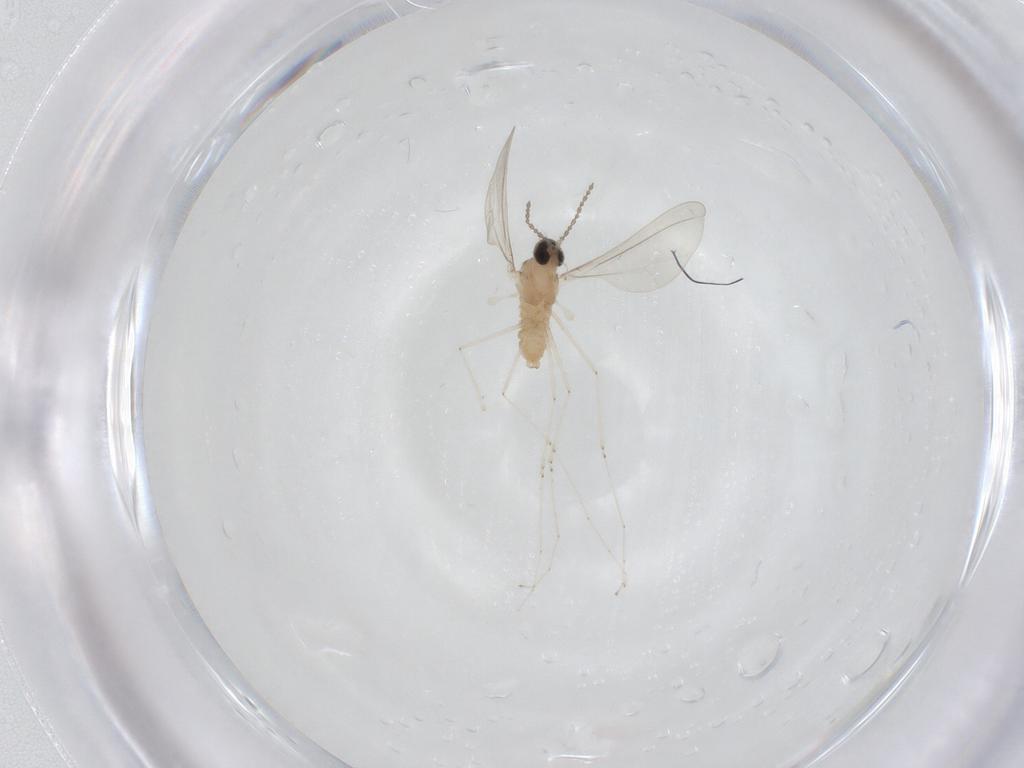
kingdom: Animalia
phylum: Arthropoda
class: Insecta
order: Diptera
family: Cecidomyiidae
